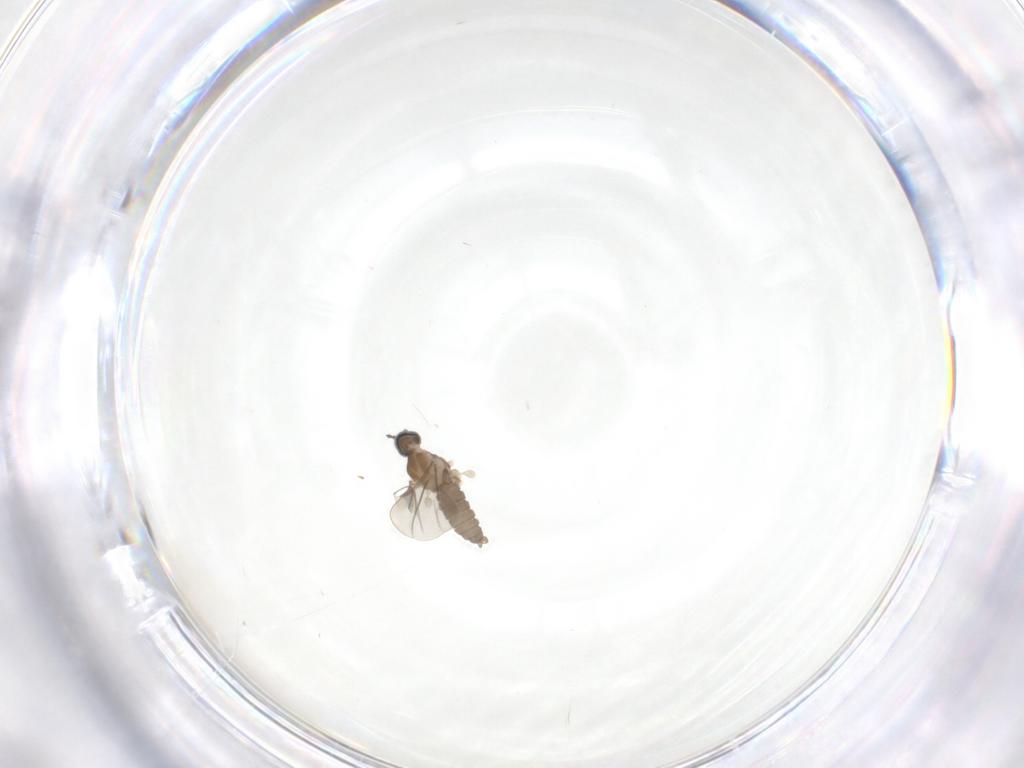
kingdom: Animalia
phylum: Arthropoda
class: Insecta
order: Diptera
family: Cecidomyiidae
